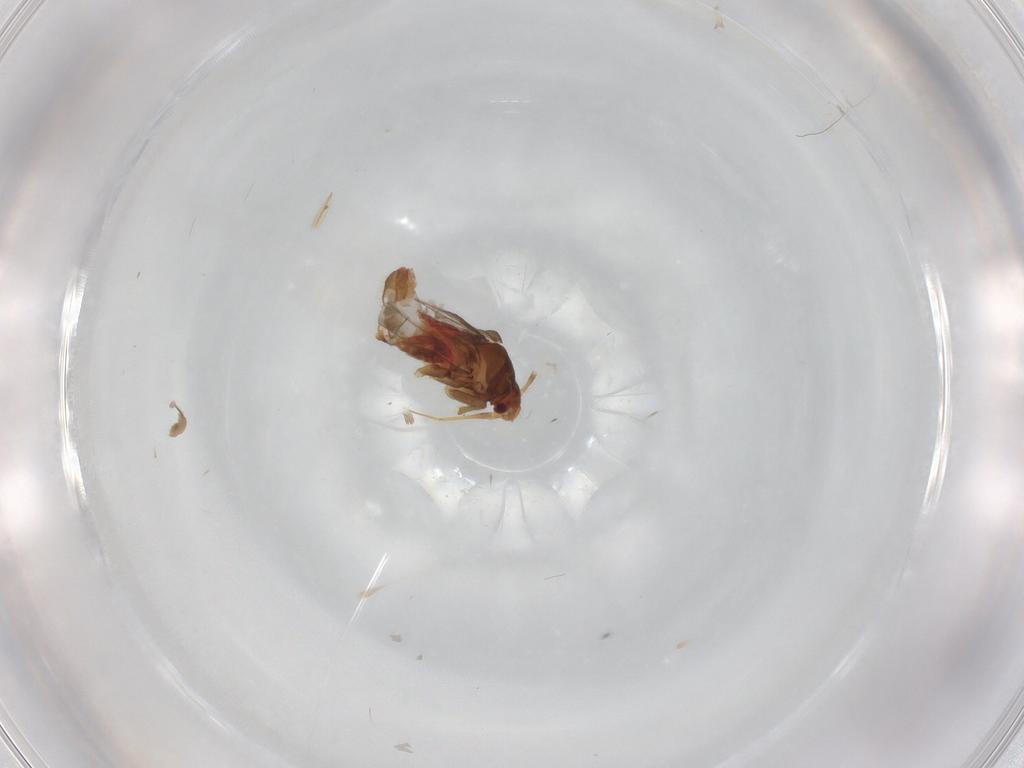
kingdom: Animalia
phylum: Arthropoda
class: Insecta
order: Hemiptera
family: Ceratocombidae
